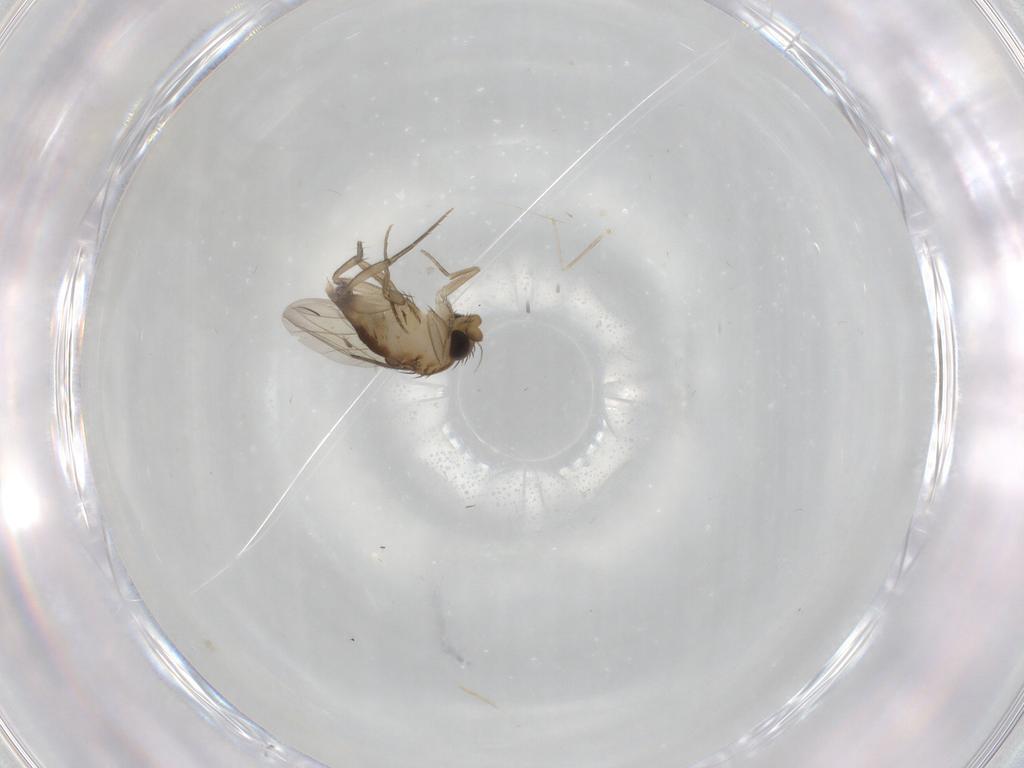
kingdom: Animalia
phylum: Arthropoda
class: Insecta
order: Diptera
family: Phoridae
